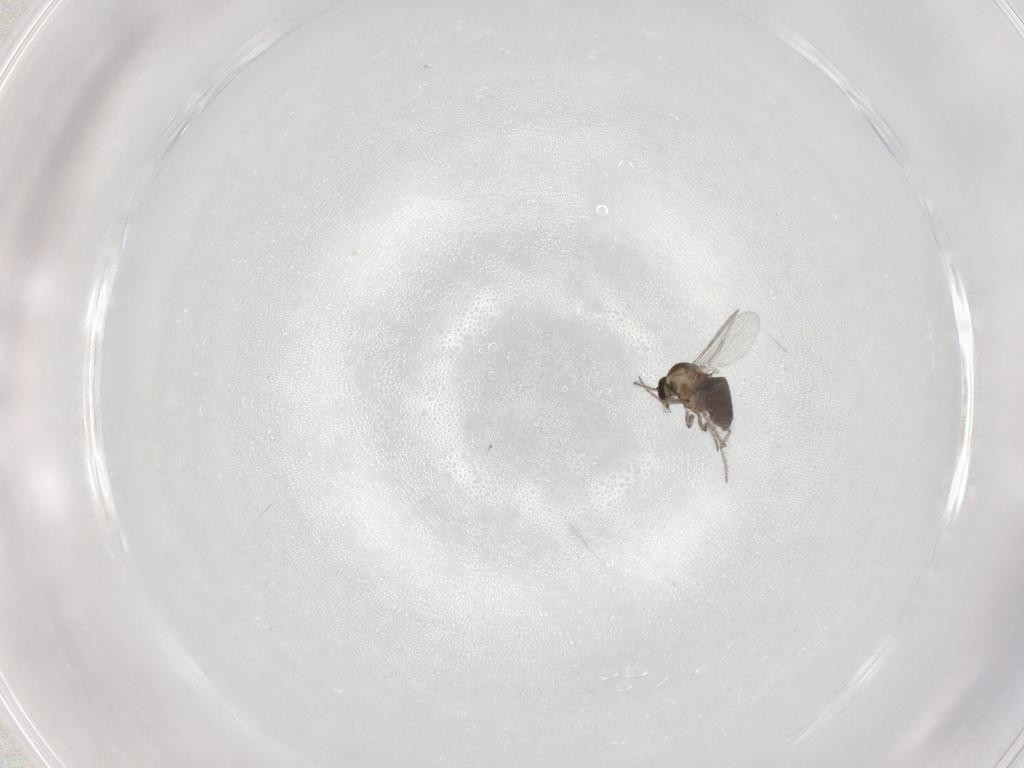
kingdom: Animalia
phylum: Arthropoda
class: Insecta
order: Diptera
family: Ceratopogonidae
